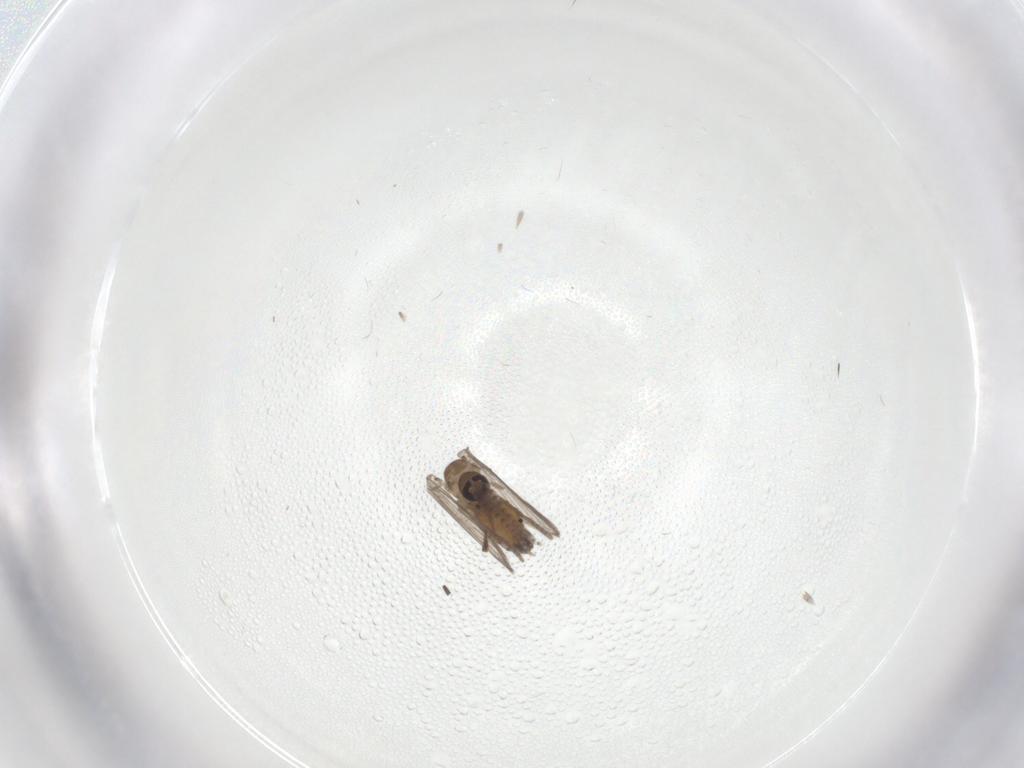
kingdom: Animalia
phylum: Arthropoda
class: Insecta
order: Diptera
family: Psychodidae
